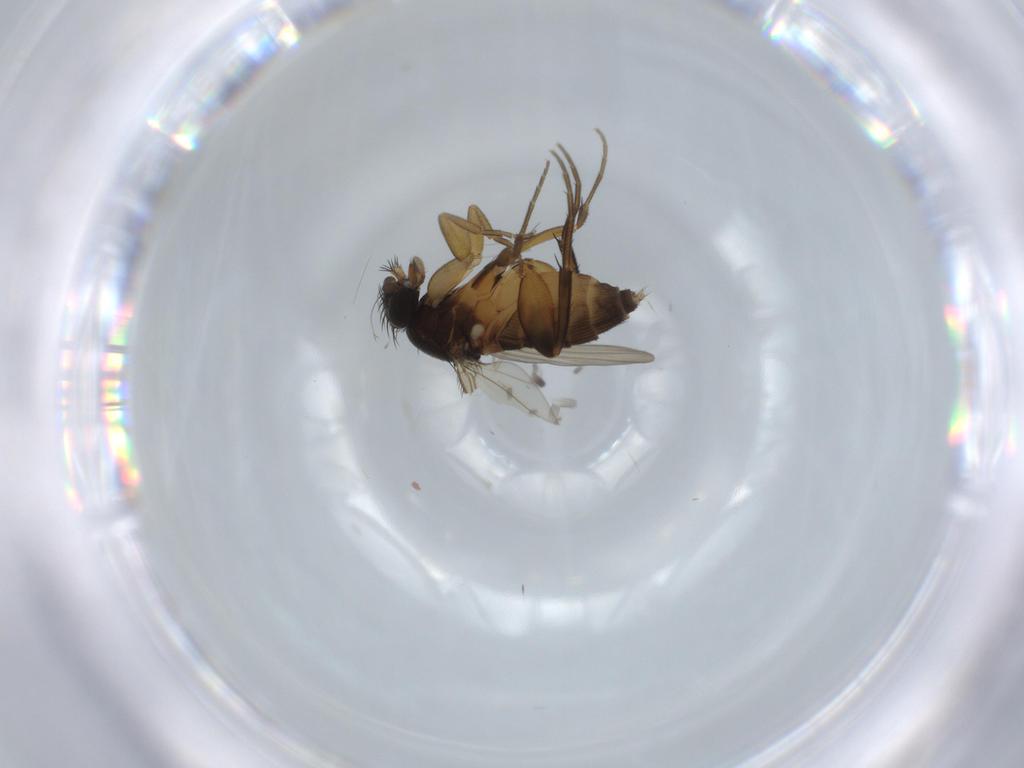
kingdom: Animalia
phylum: Arthropoda
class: Insecta
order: Diptera
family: Phoridae
